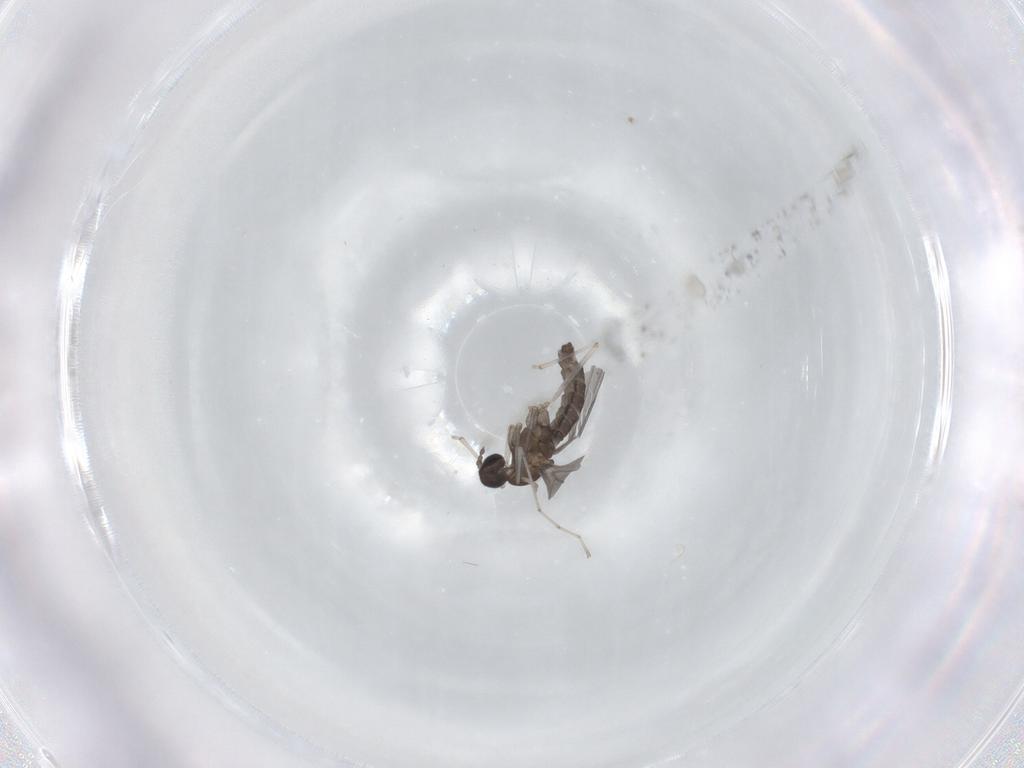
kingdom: Animalia
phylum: Arthropoda
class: Insecta
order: Diptera
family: Cecidomyiidae
